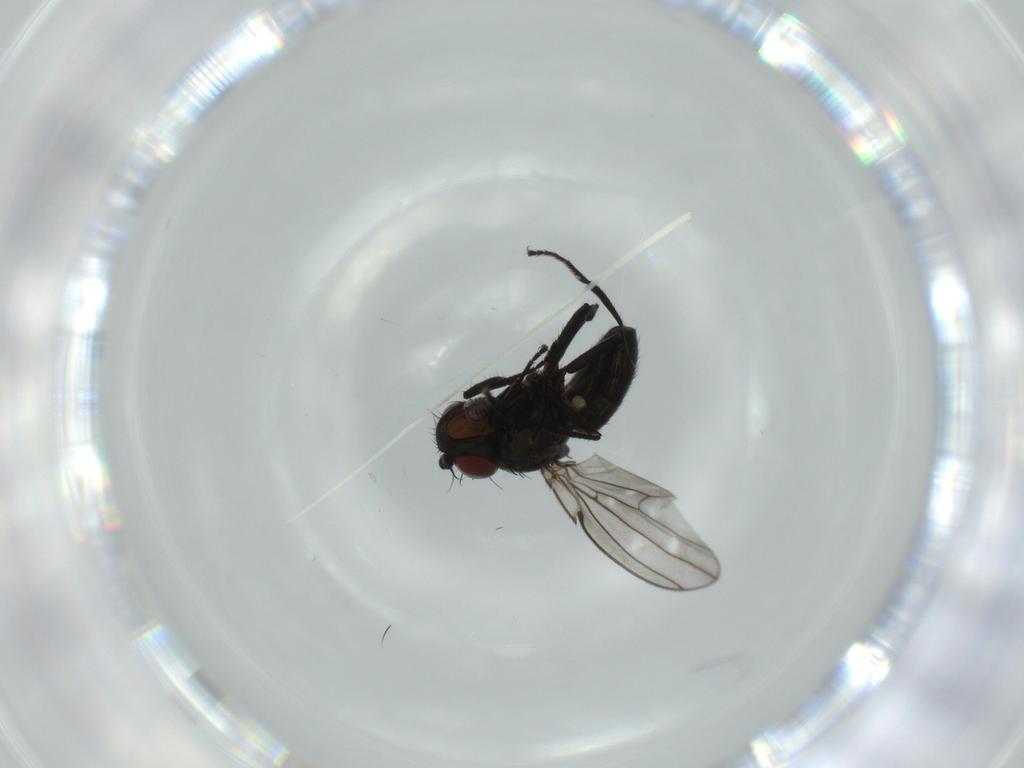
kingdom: Animalia
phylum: Arthropoda
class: Insecta
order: Diptera
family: Ephydridae
